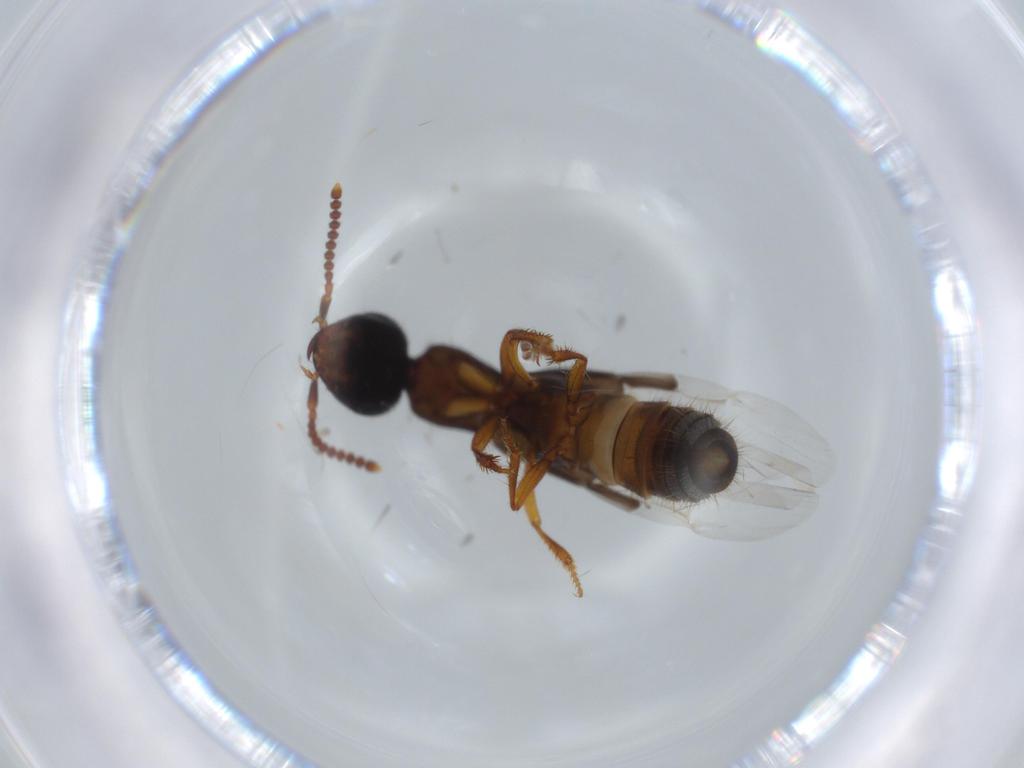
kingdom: Animalia
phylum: Arthropoda
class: Insecta
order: Coleoptera
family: Staphylinidae
